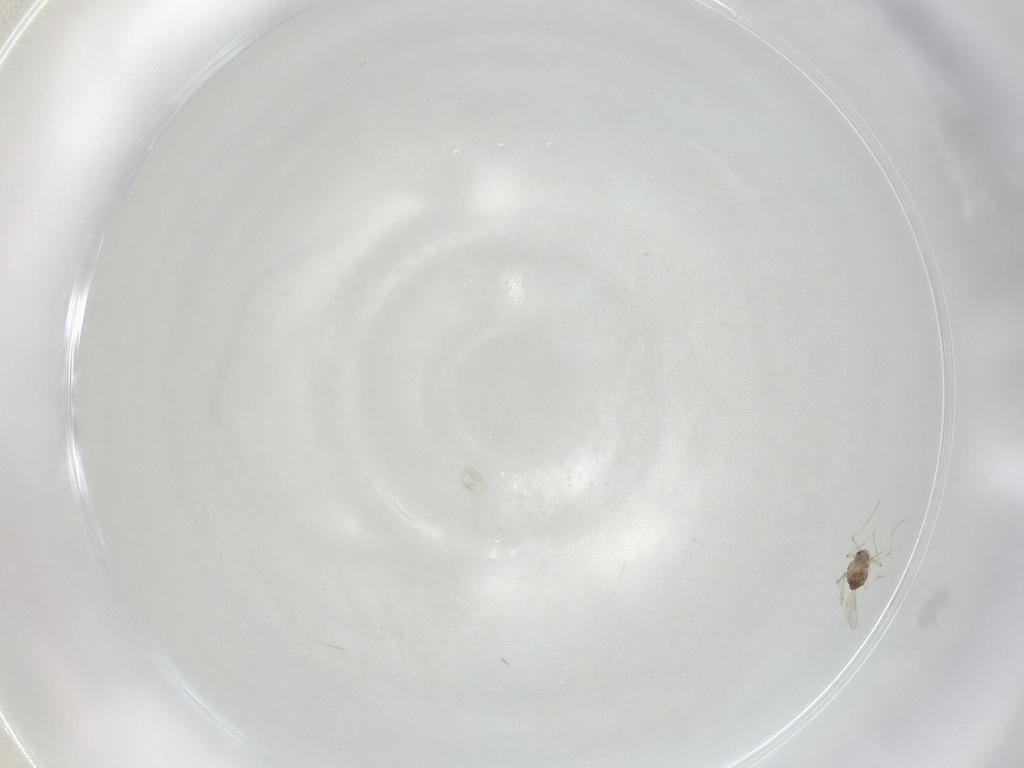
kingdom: Animalia
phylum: Arthropoda
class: Insecta
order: Diptera
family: Chironomidae
